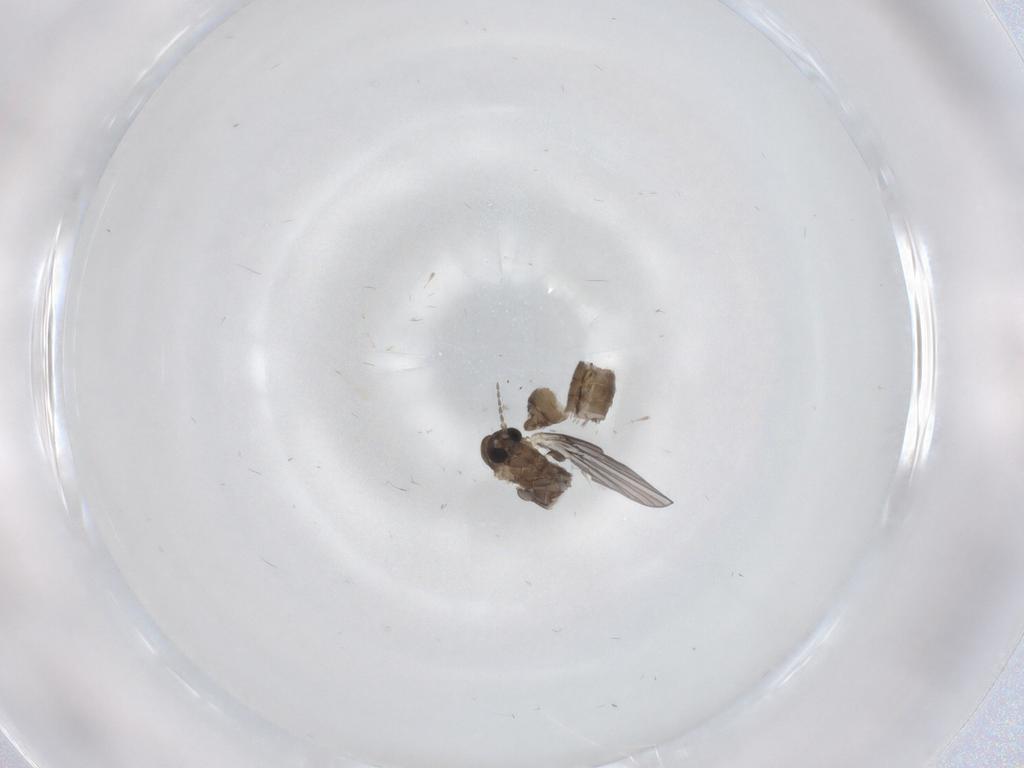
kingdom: Animalia
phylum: Arthropoda
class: Insecta
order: Diptera
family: Psychodidae
